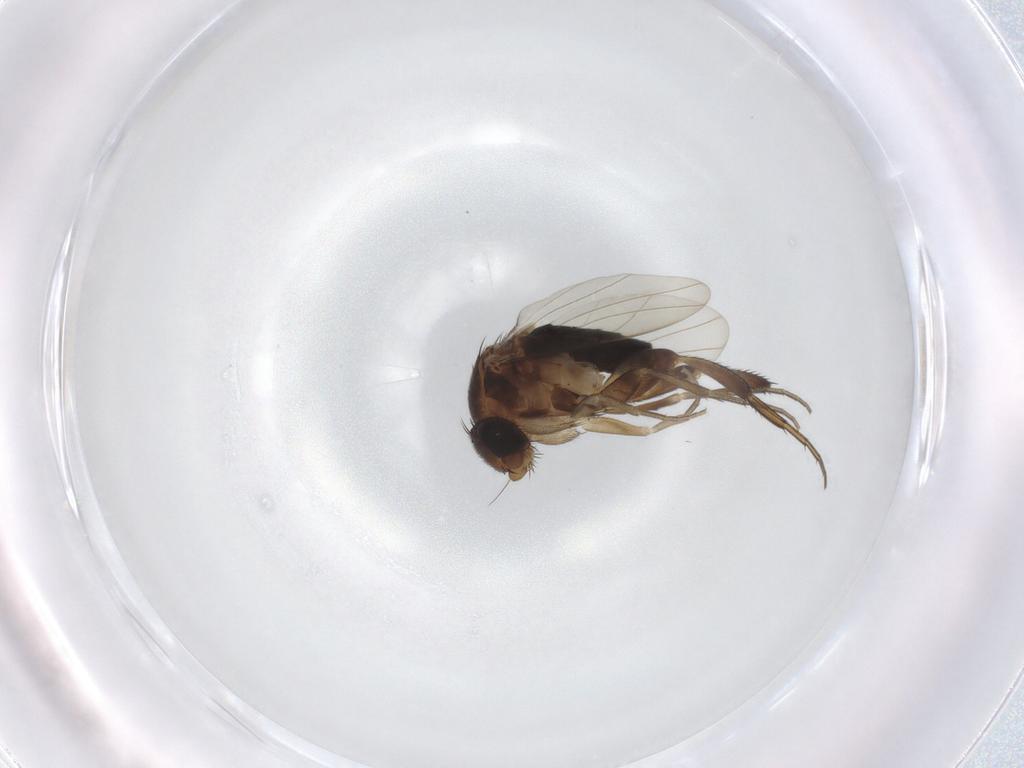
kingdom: Animalia
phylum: Arthropoda
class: Insecta
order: Diptera
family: Phoridae
